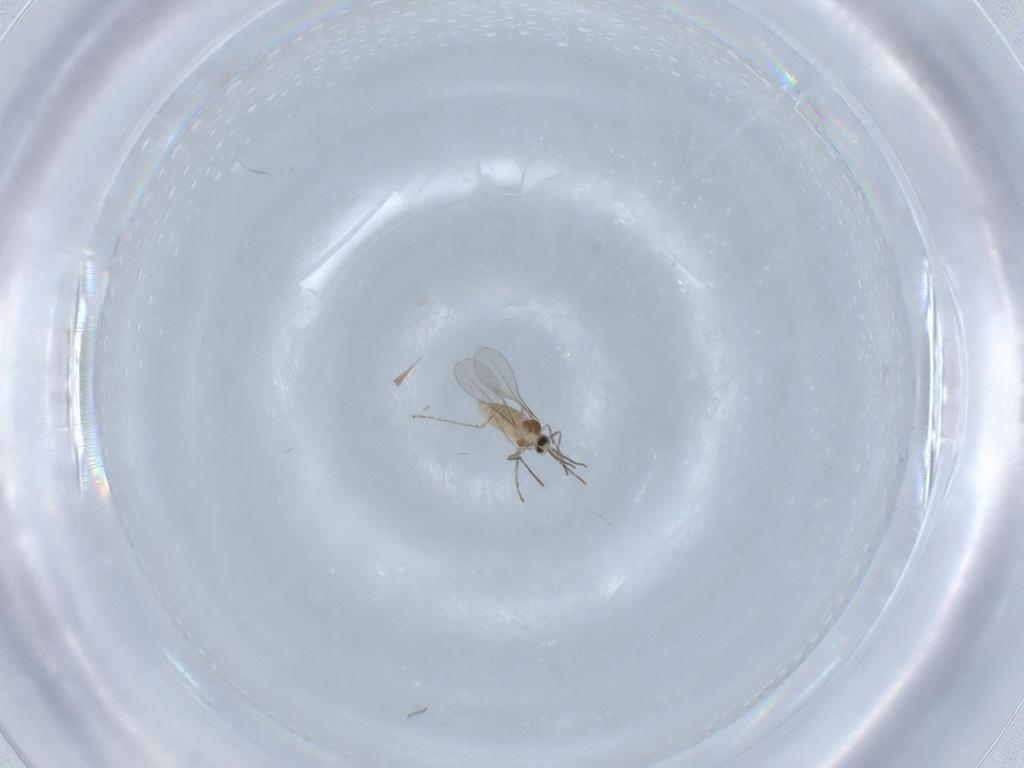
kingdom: Animalia
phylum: Arthropoda
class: Insecta
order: Diptera
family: Cecidomyiidae
